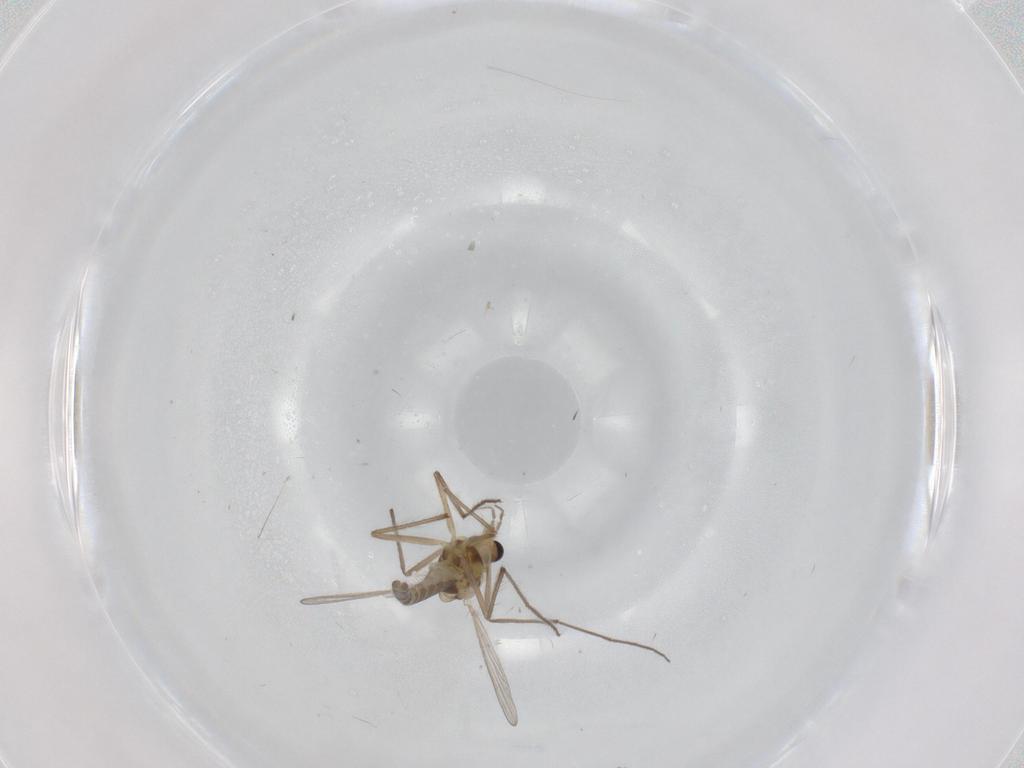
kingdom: Animalia
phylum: Arthropoda
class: Insecta
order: Diptera
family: Chironomidae
